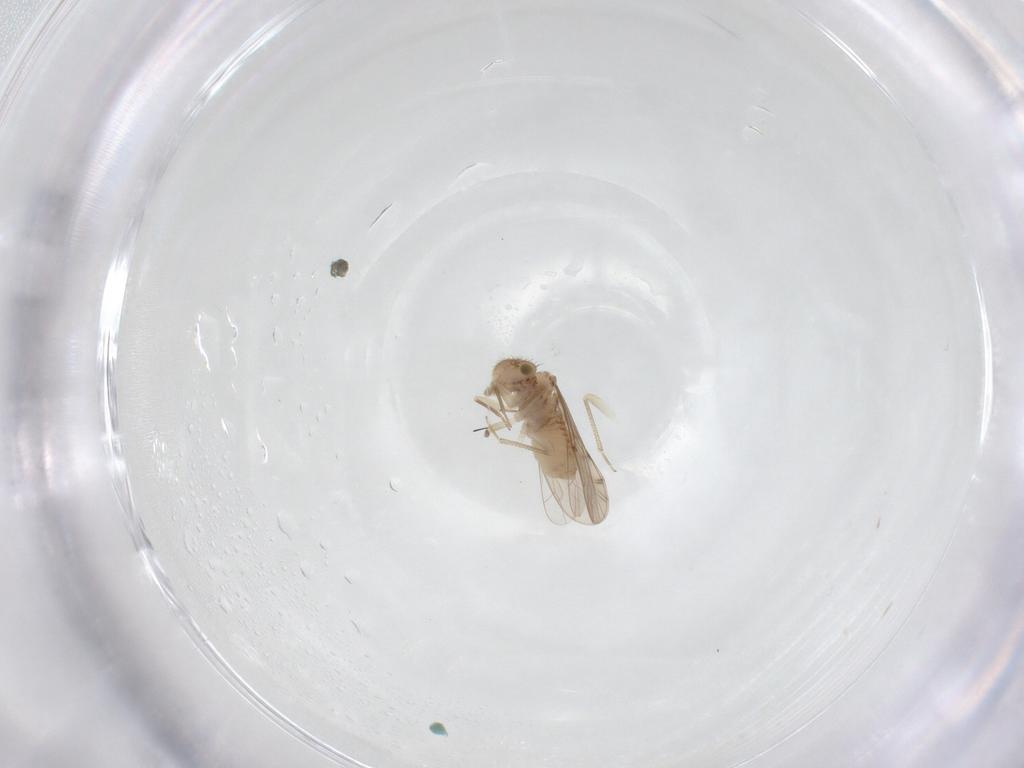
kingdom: Animalia
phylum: Arthropoda
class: Insecta
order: Psocodea
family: Ectopsocidae
